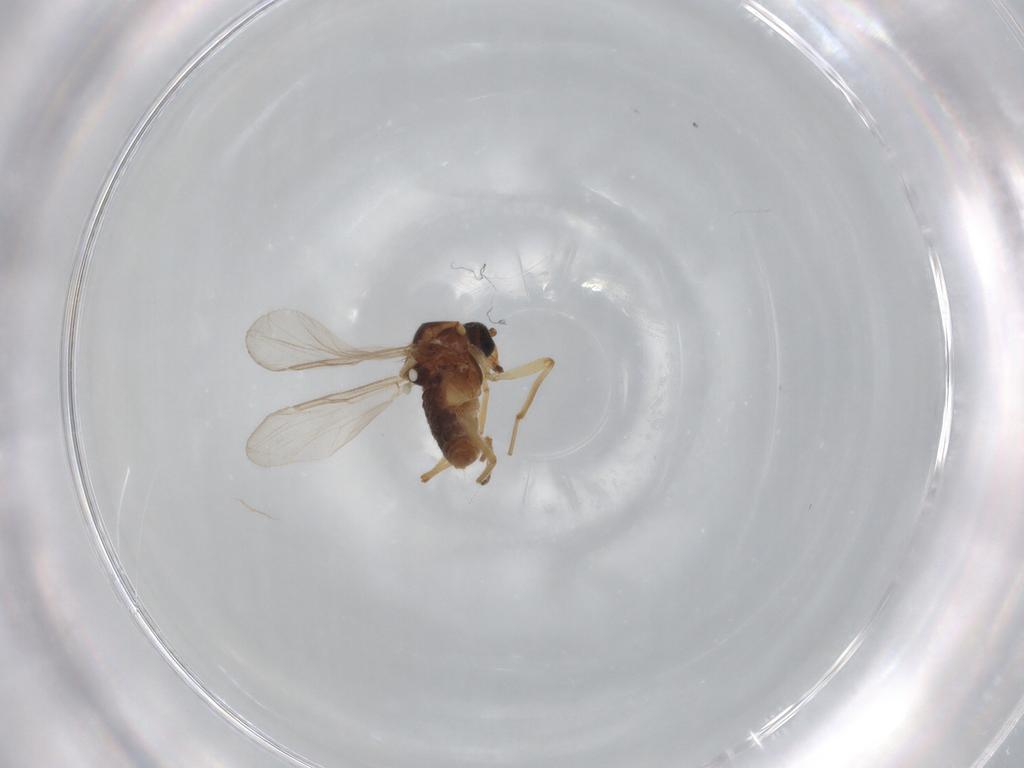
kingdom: Animalia
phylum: Arthropoda
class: Insecta
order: Diptera
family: Ceratopogonidae
